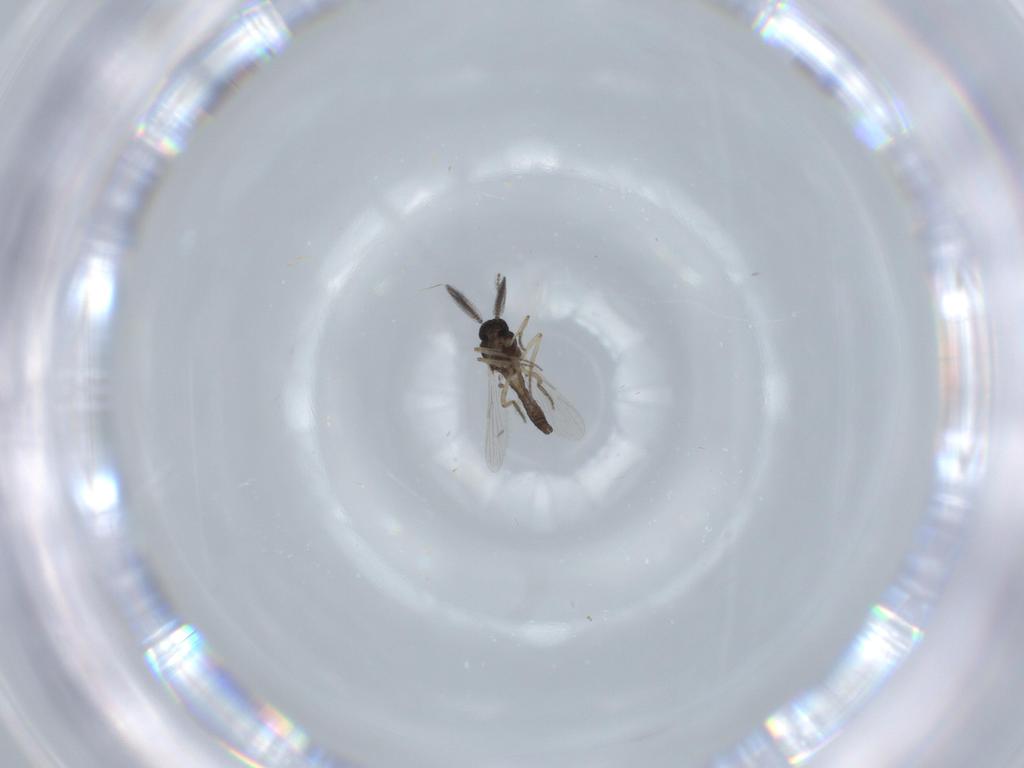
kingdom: Animalia
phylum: Arthropoda
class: Insecta
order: Diptera
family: Ceratopogonidae
